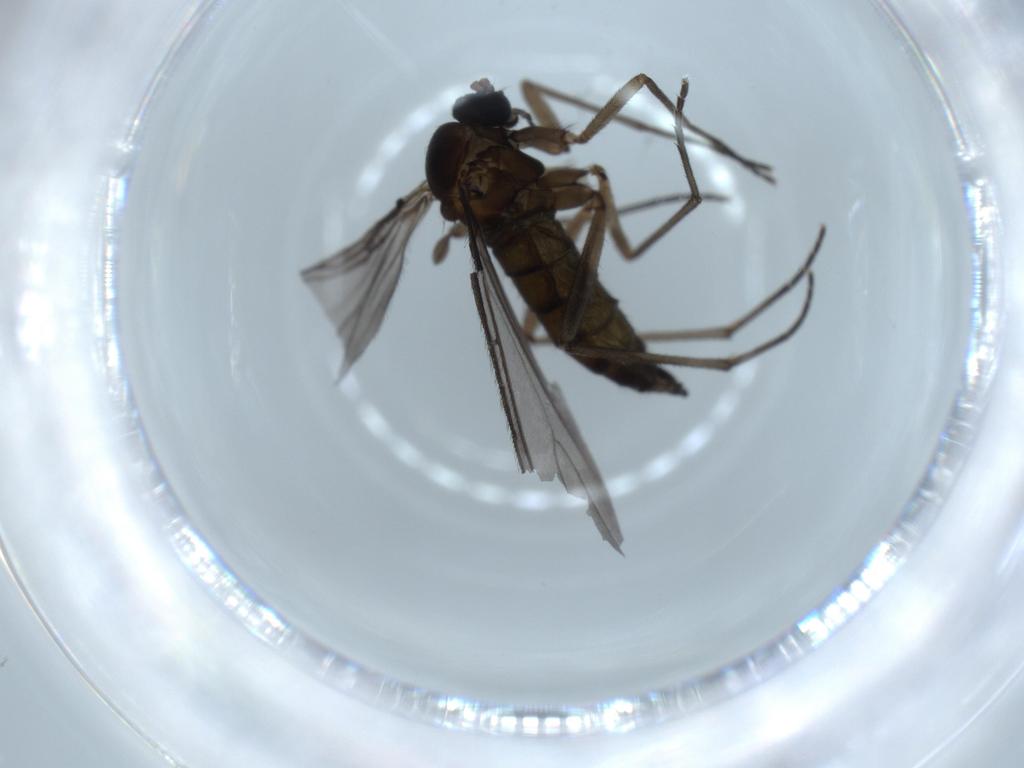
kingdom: Animalia
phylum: Arthropoda
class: Insecta
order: Diptera
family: Sciaridae
